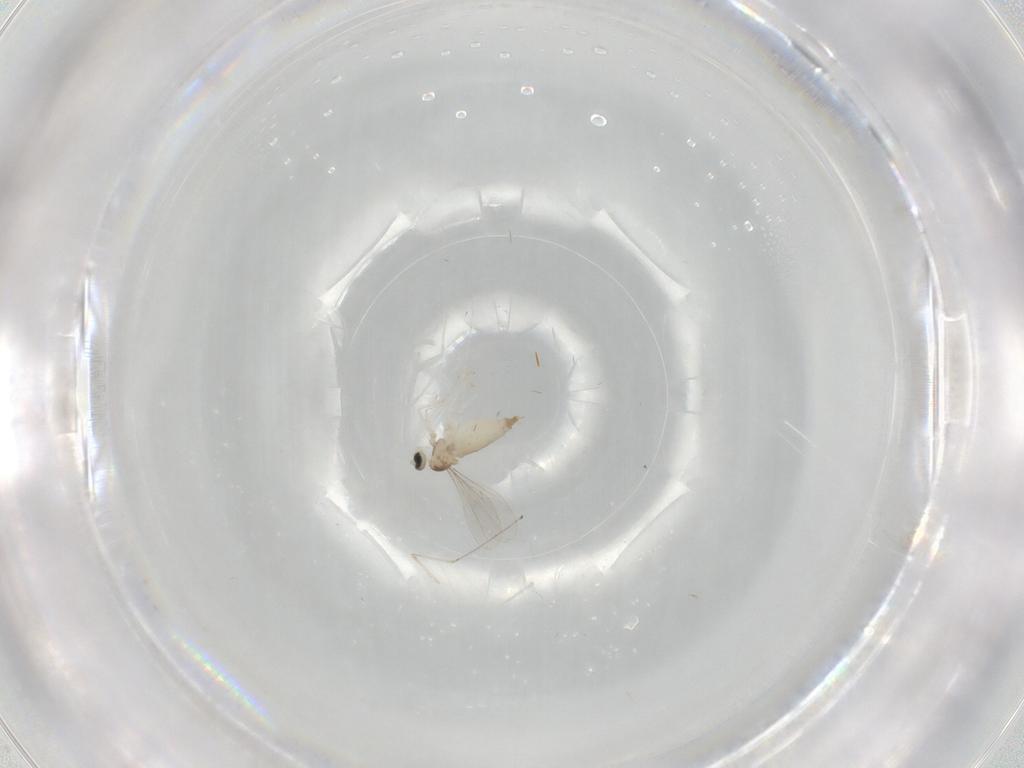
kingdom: Animalia
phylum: Arthropoda
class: Insecta
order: Diptera
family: Cecidomyiidae
